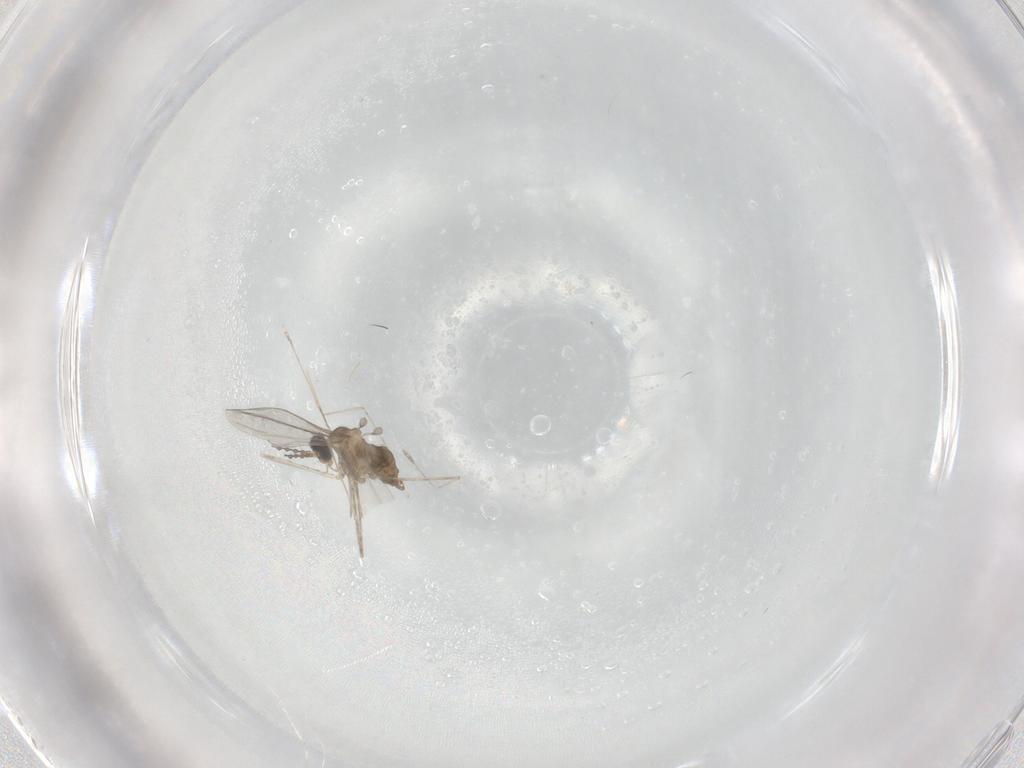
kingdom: Animalia
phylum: Arthropoda
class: Insecta
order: Diptera
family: Cecidomyiidae
